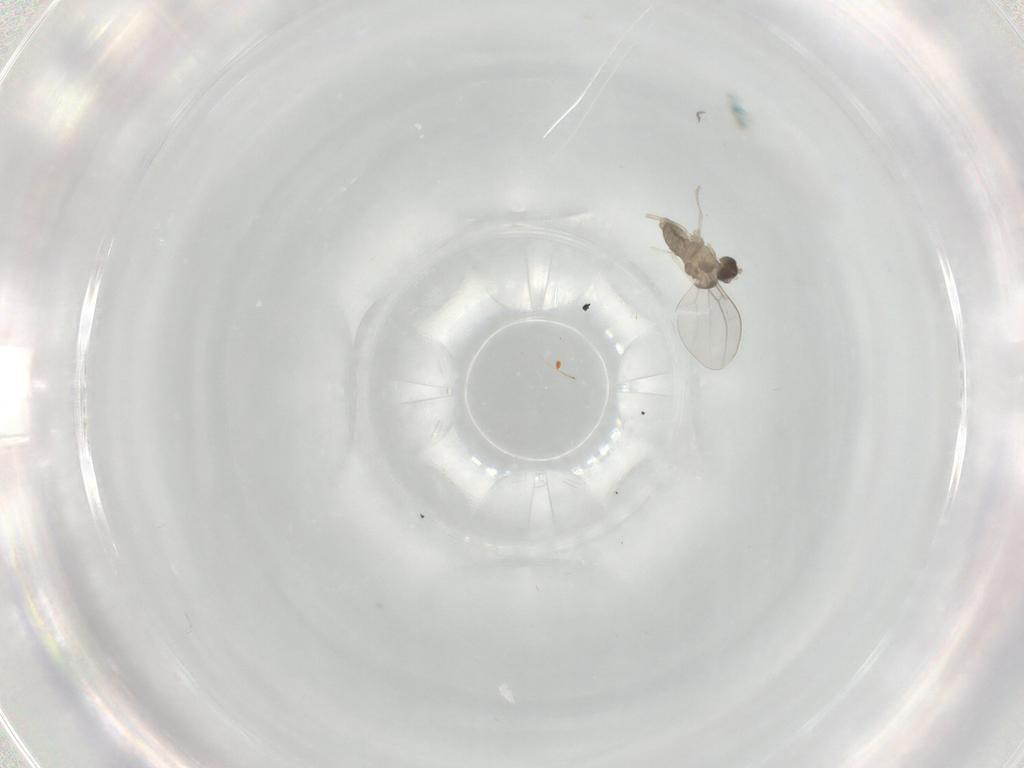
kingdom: Animalia
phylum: Arthropoda
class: Insecta
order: Diptera
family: Cecidomyiidae
